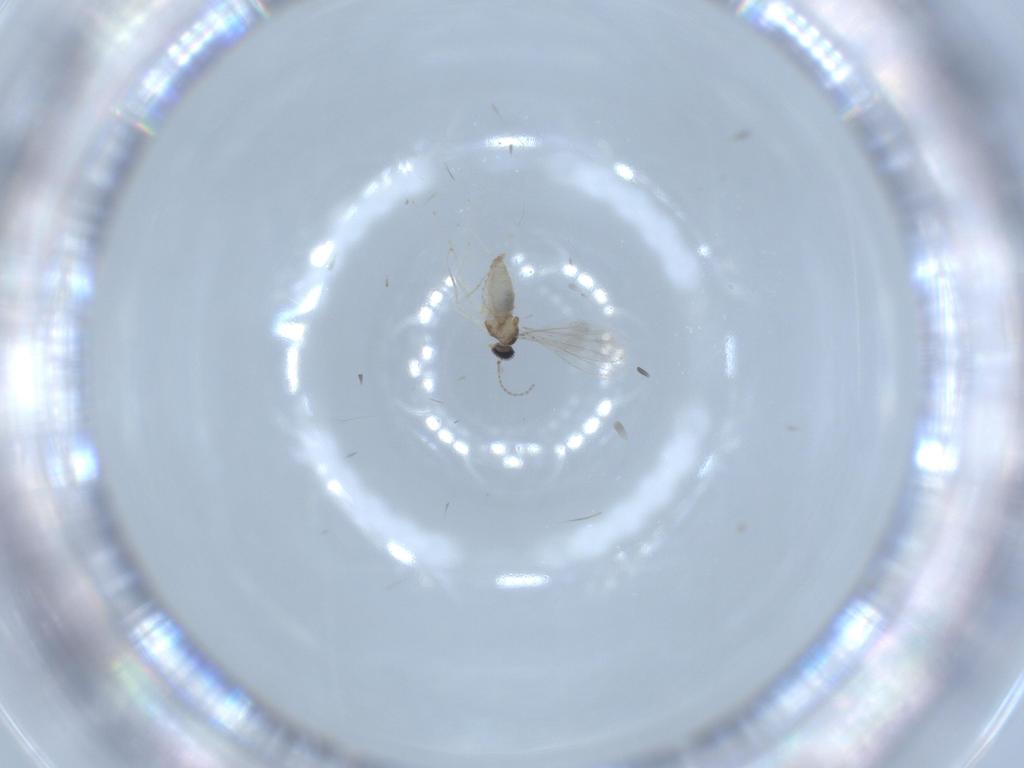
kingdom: Animalia
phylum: Arthropoda
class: Insecta
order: Diptera
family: Cecidomyiidae
